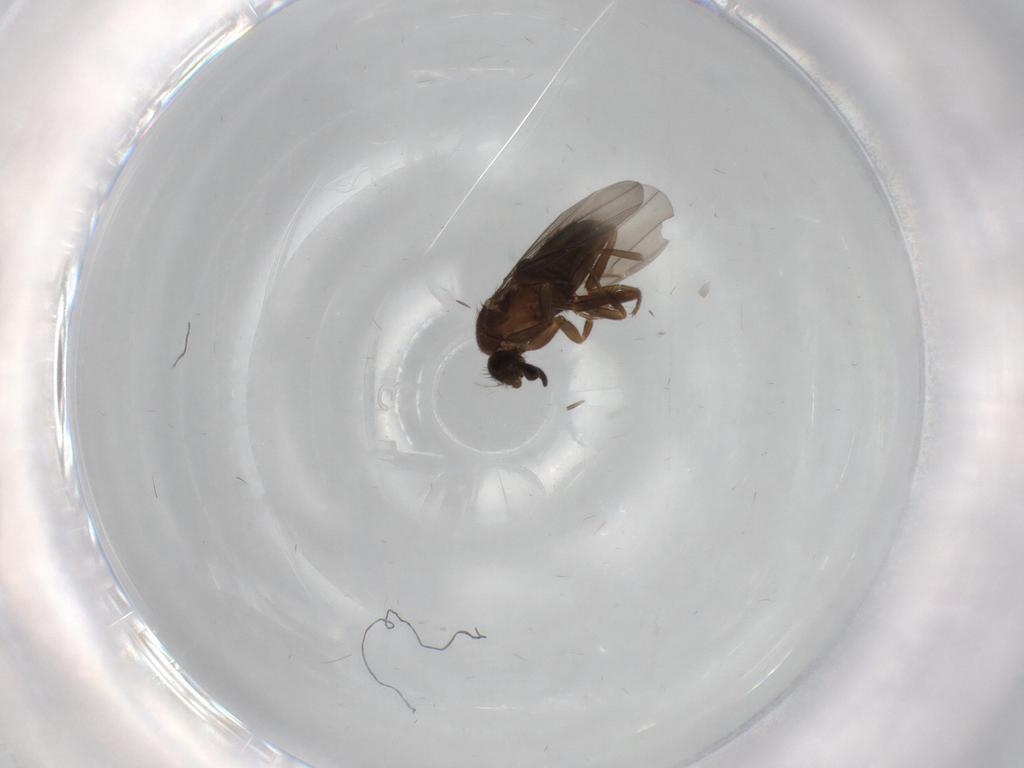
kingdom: Animalia
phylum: Arthropoda
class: Insecta
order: Diptera
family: Phoridae
